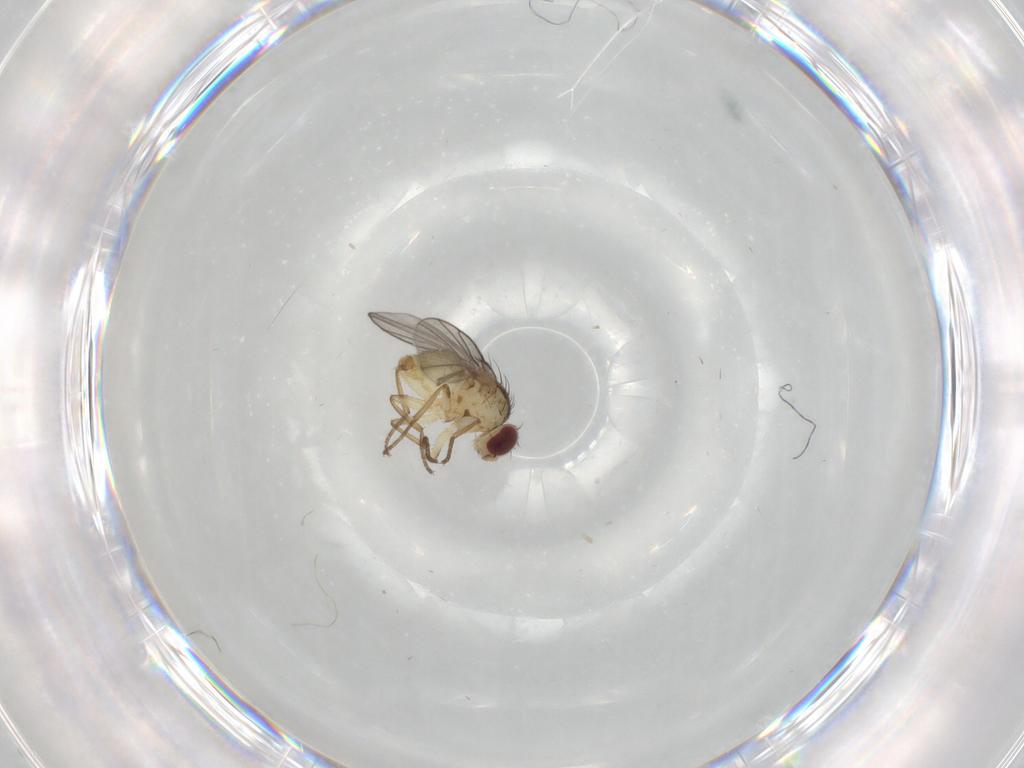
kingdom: Animalia
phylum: Arthropoda
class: Insecta
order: Diptera
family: Agromyzidae
